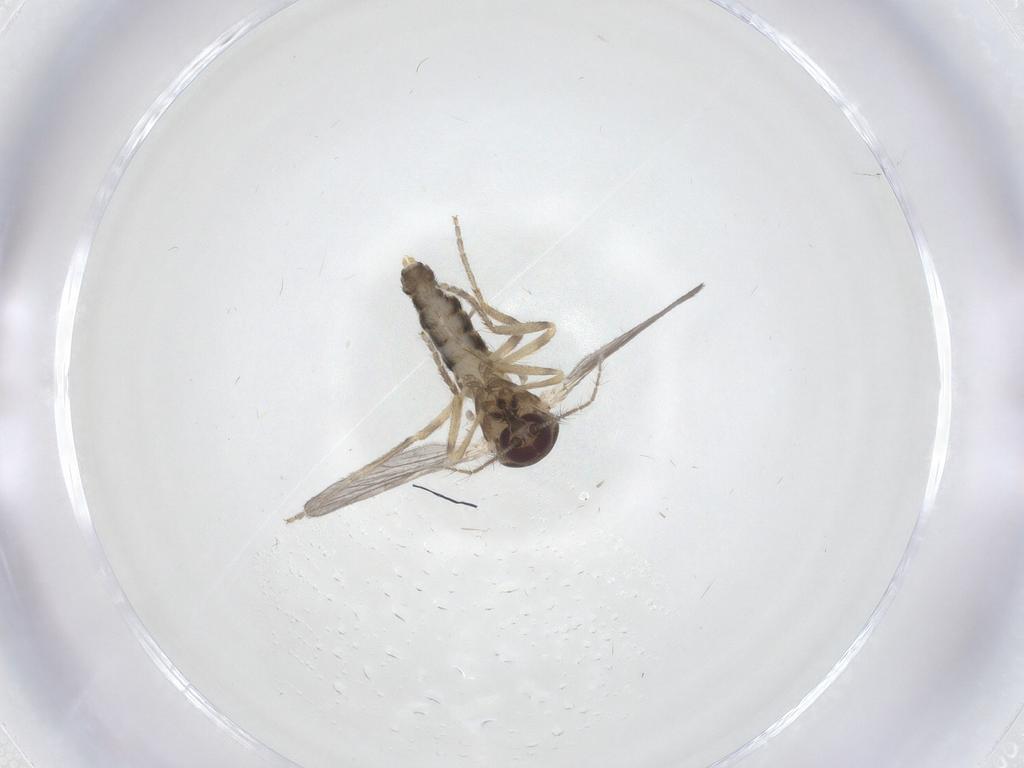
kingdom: Animalia
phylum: Arthropoda
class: Insecta
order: Diptera
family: Ceratopogonidae
